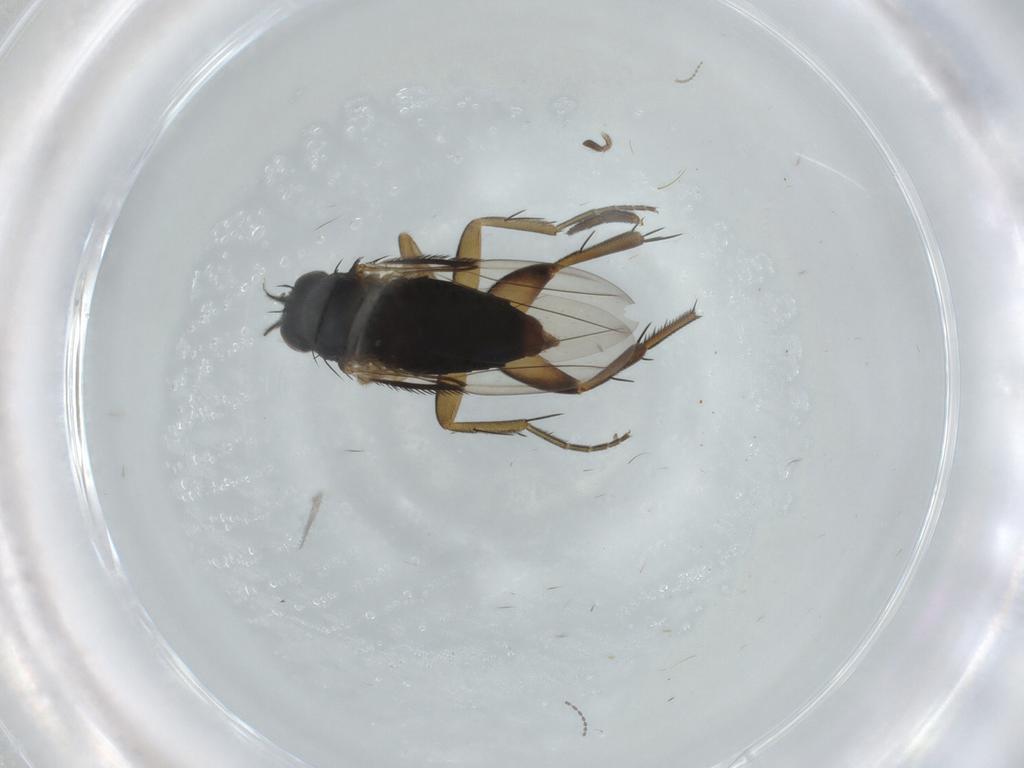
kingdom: Animalia
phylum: Arthropoda
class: Insecta
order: Diptera
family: Phoridae
